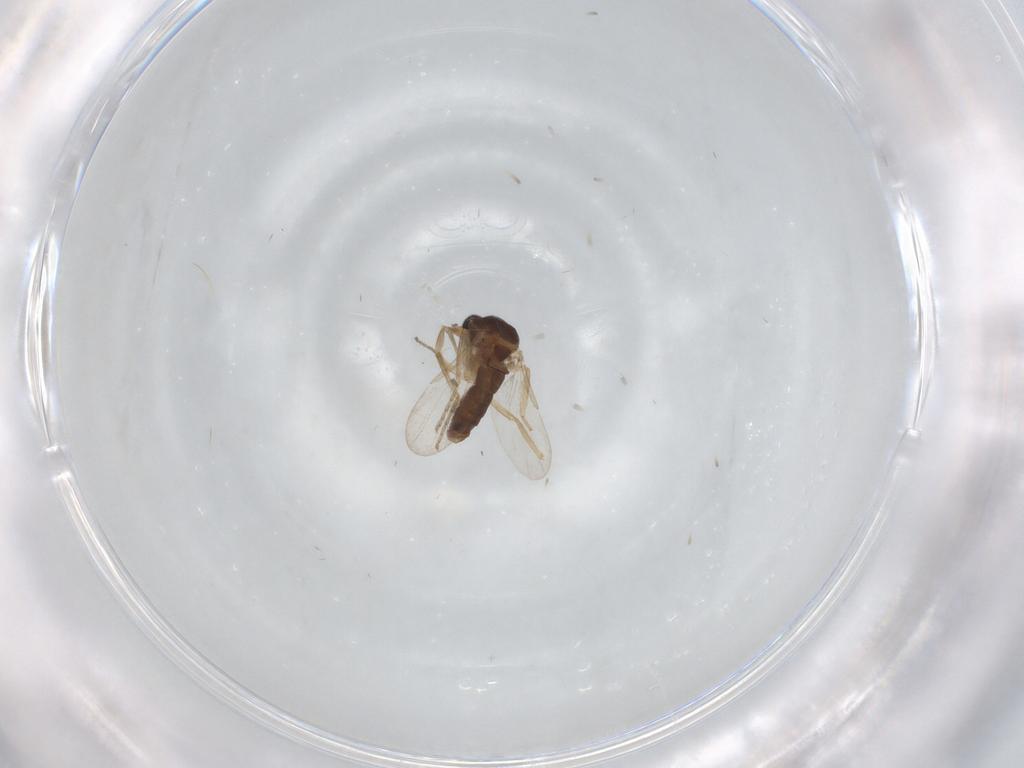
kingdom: Animalia
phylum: Arthropoda
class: Insecta
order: Diptera
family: Ceratopogonidae
